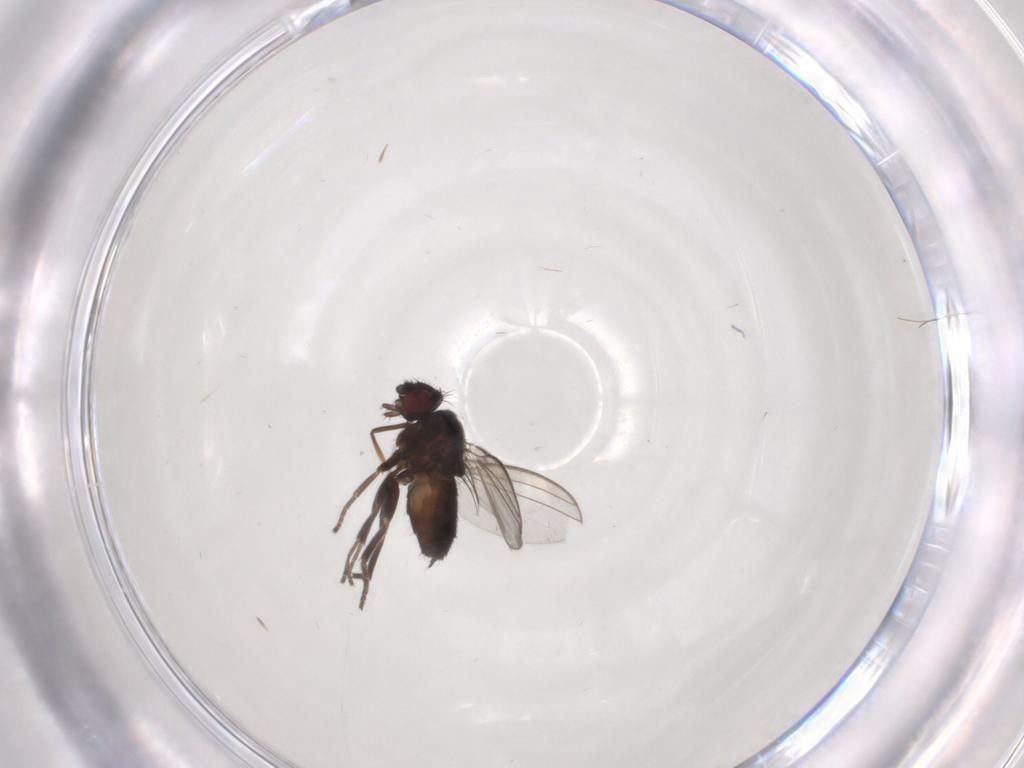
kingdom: Animalia
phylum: Arthropoda
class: Insecta
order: Diptera
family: Milichiidae
